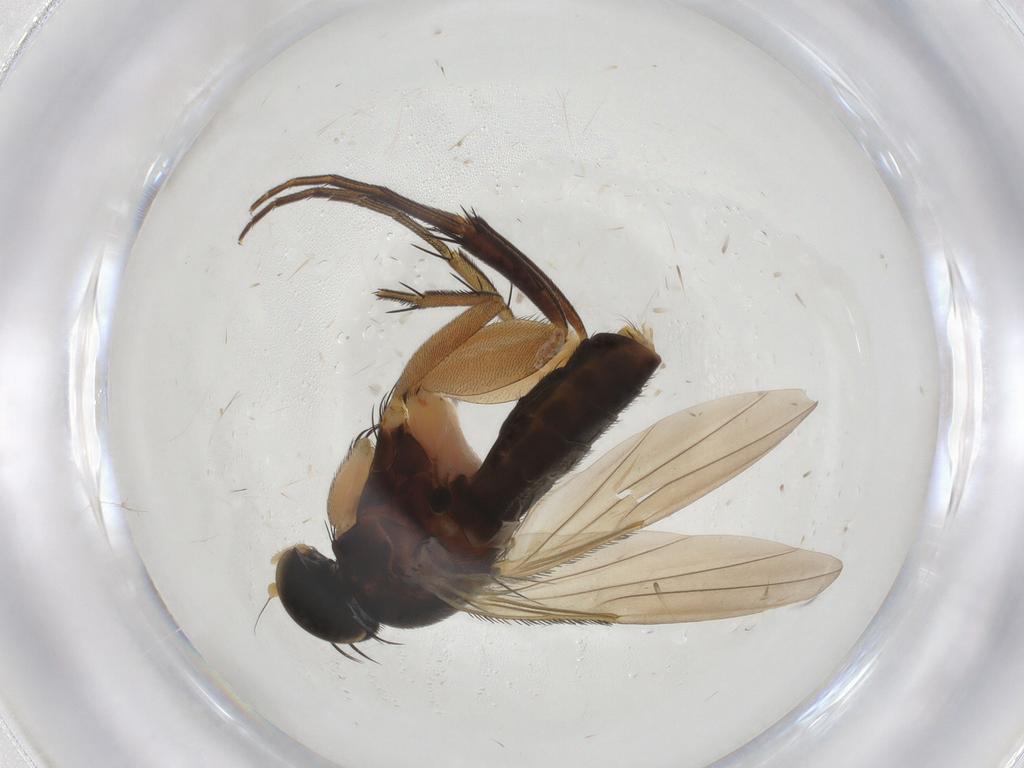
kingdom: Animalia
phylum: Arthropoda
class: Insecta
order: Diptera
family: Phoridae
